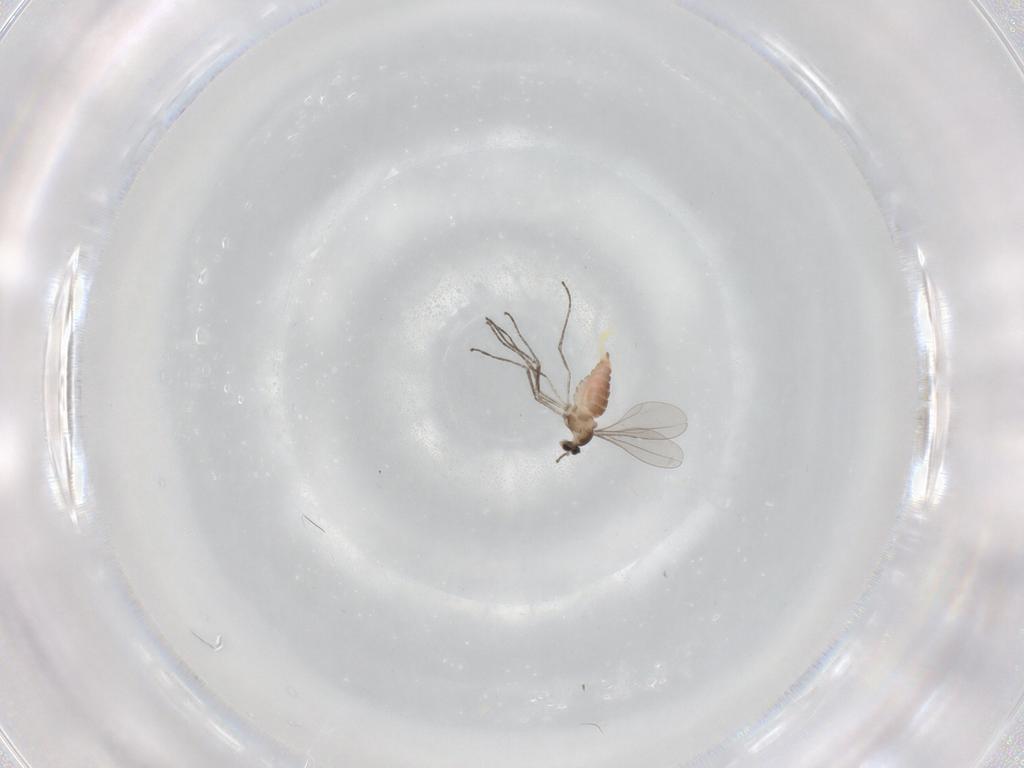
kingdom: Animalia
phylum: Arthropoda
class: Insecta
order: Diptera
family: Cecidomyiidae
